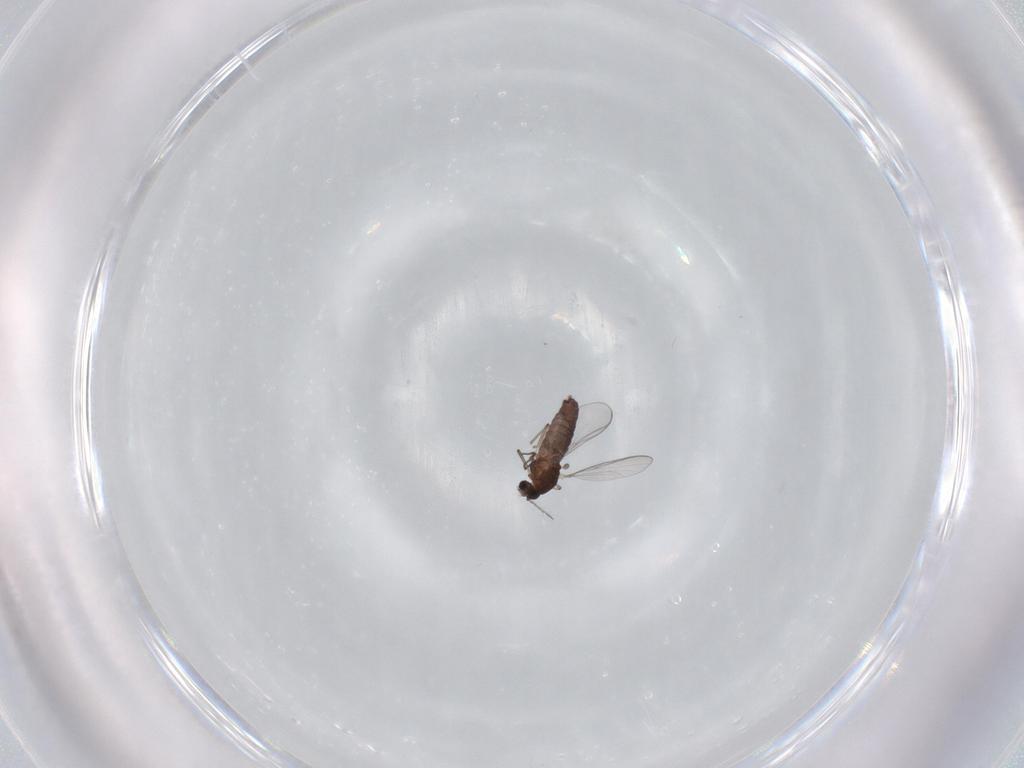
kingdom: Animalia
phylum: Arthropoda
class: Insecta
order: Diptera
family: Chironomidae
